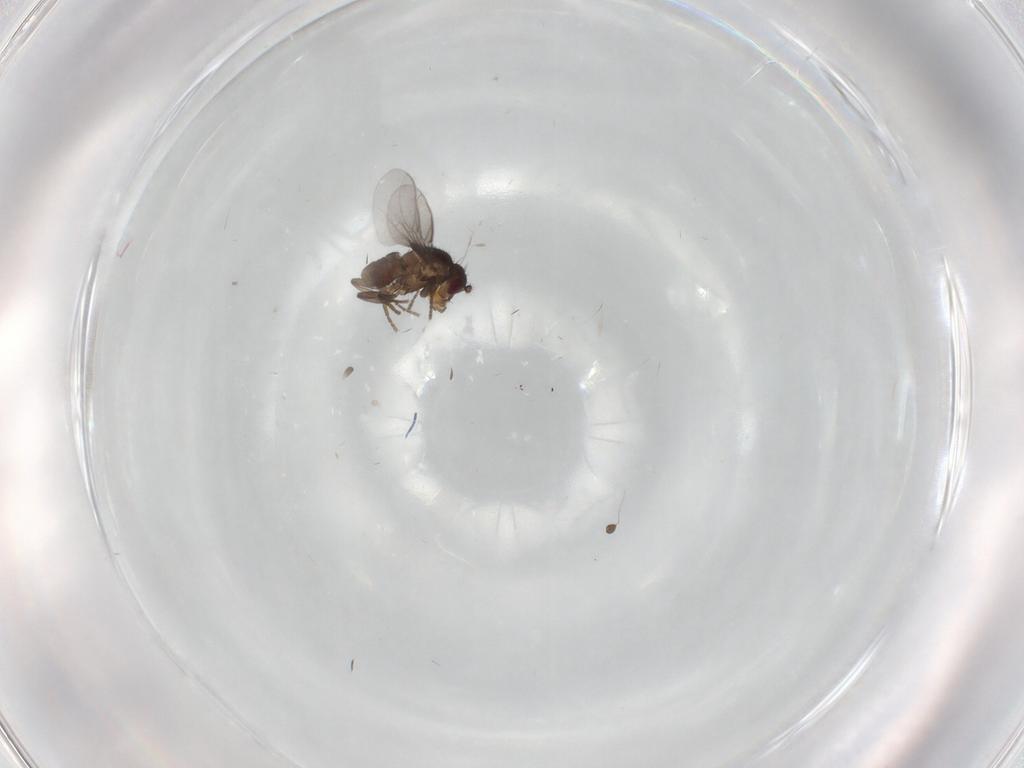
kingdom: Animalia
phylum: Arthropoda
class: Insecta
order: Diptera
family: Sphaeroceridae
